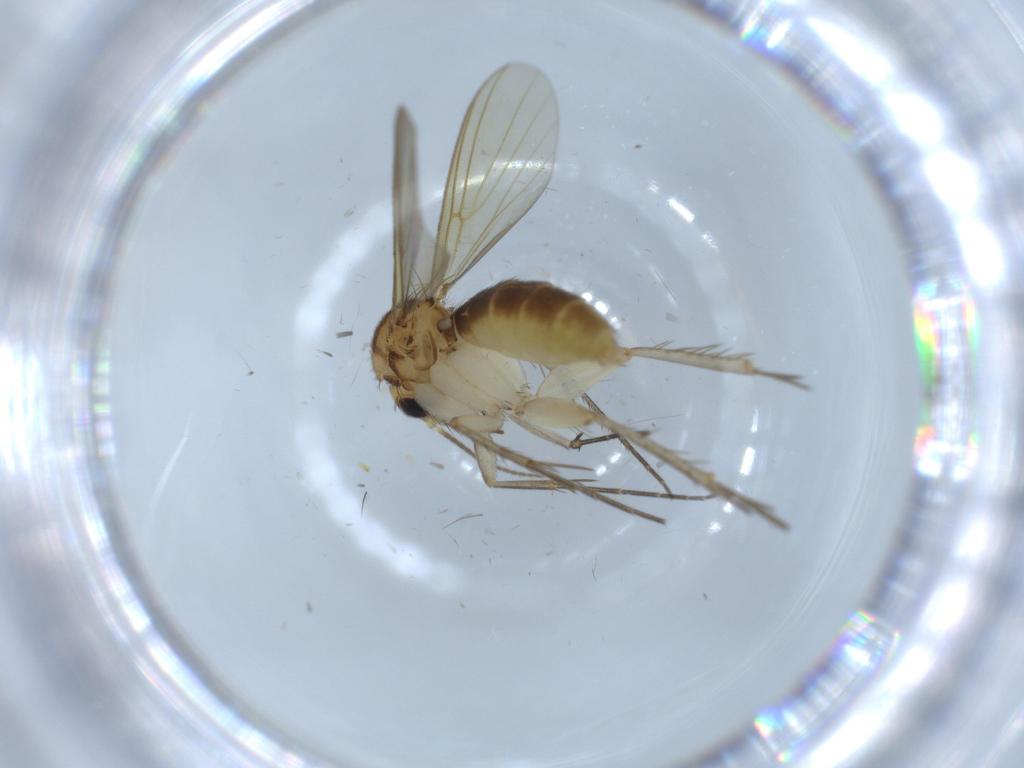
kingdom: Animalia
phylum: Arthropoda
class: Insecta
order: Diptera
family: Mycetophilidae
